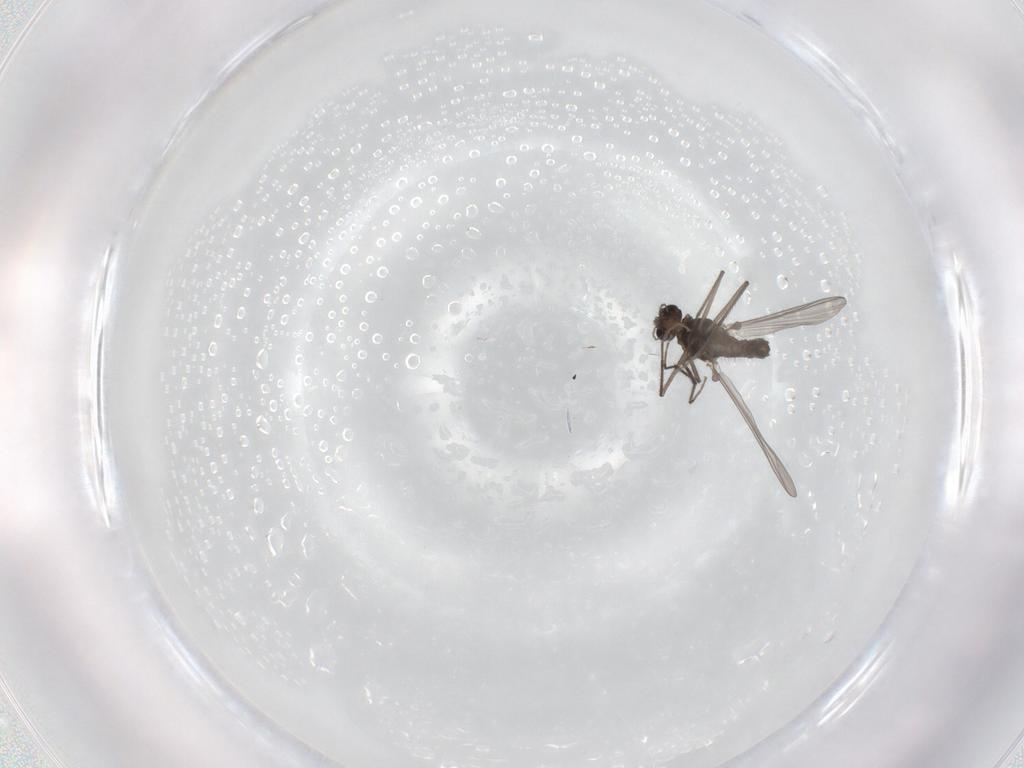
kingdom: Animalia
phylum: Arthropoda
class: Insecta
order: Diptera
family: Chironomidae
